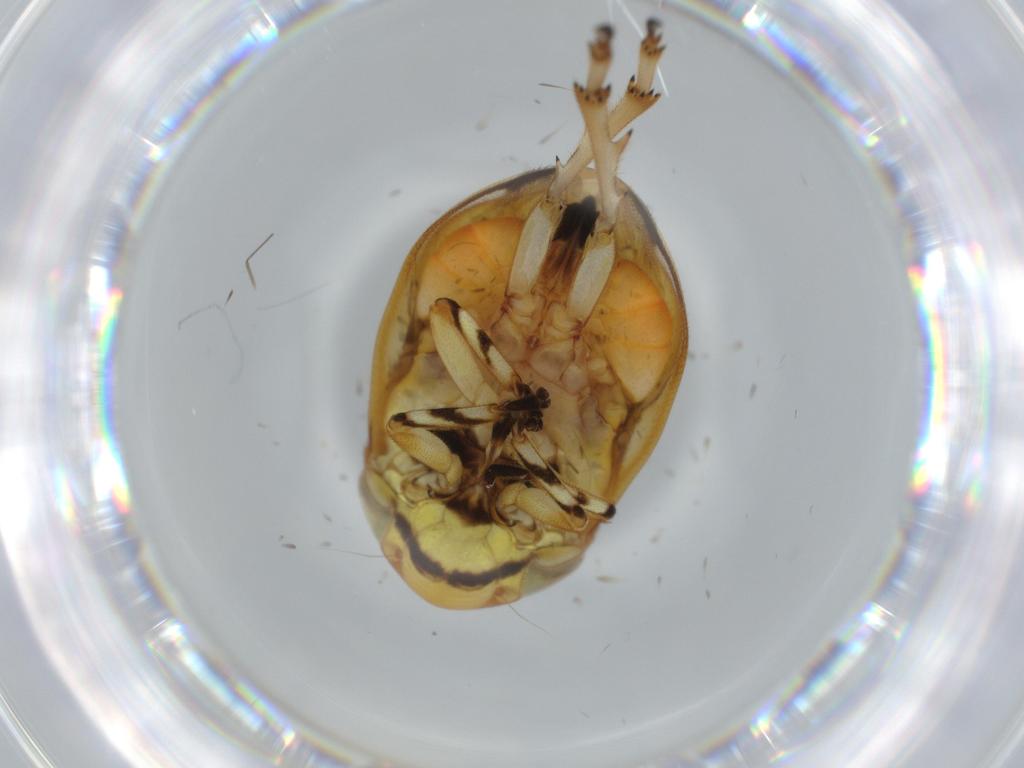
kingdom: Animalia
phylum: Arthropoda
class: Insecta
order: Hemiptera
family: Clastopteridae
